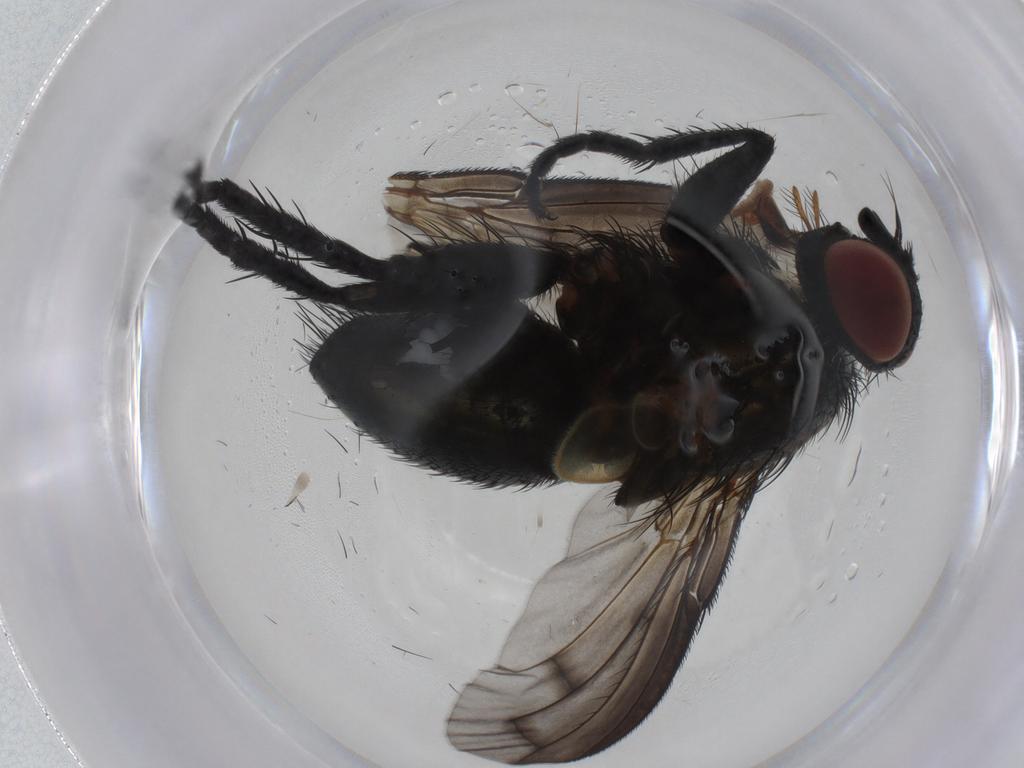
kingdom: Animalia
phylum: Arthropoda
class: Insecta
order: Diptera
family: Tachinidae
